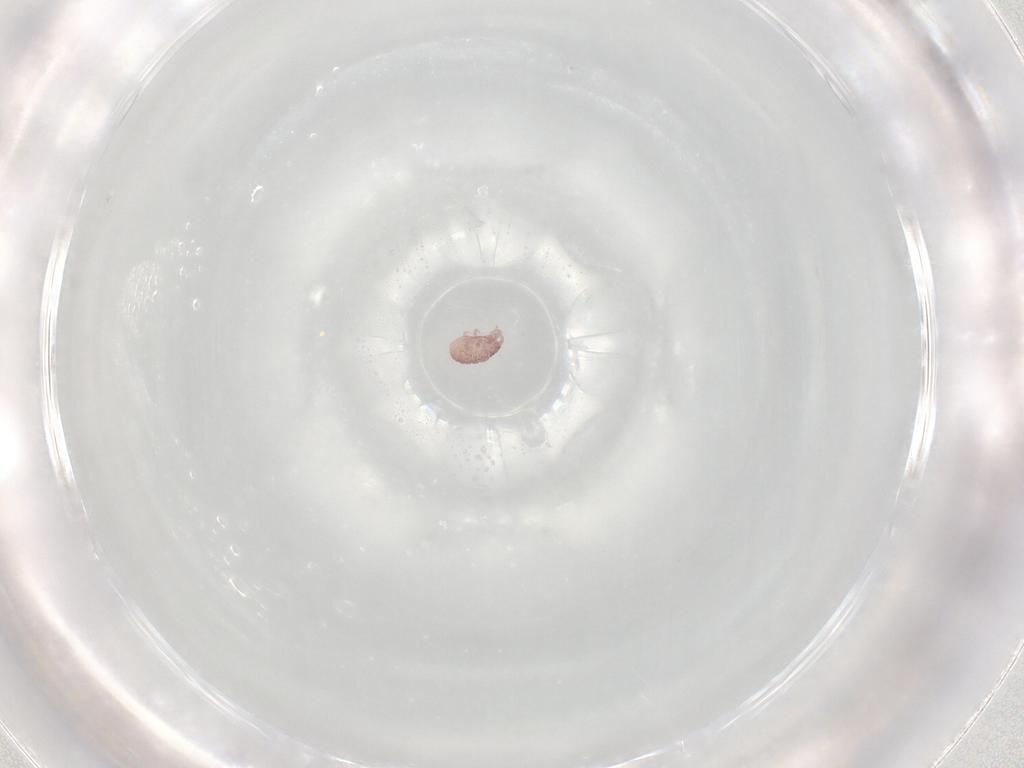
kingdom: Animalia
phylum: Arthropoda
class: Arachnida
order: Sarcoptiformes
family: Alycidae
